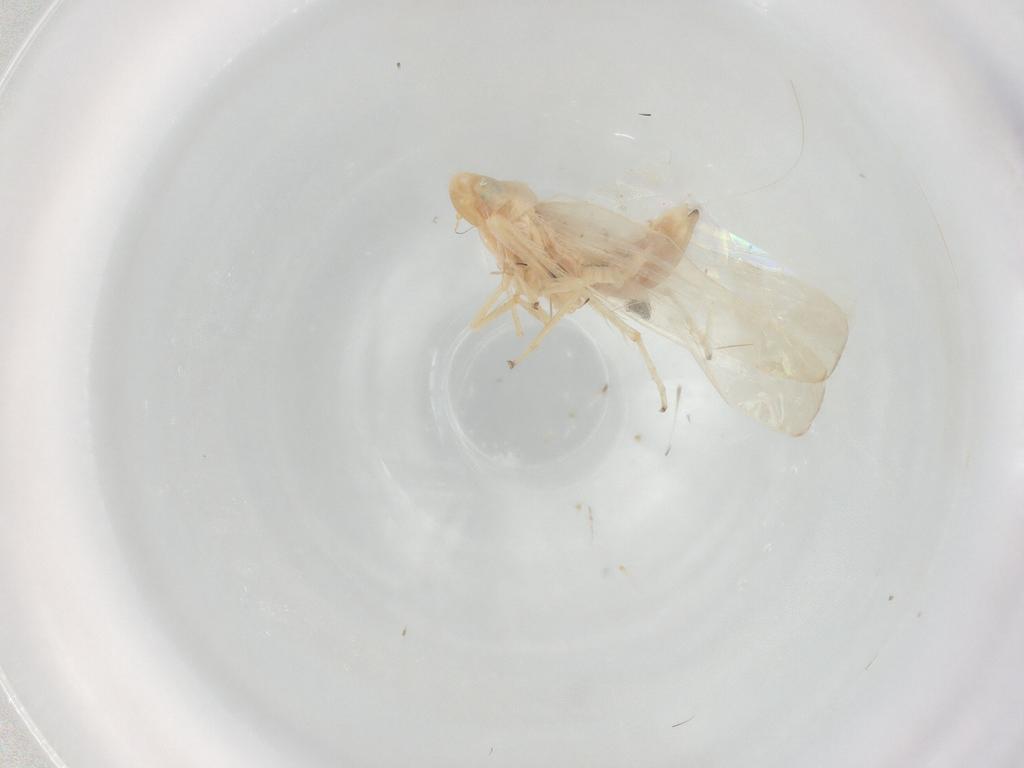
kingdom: Animalia
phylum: Arthropoda
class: Insecta
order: Hemiptera
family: Cicadellidae
